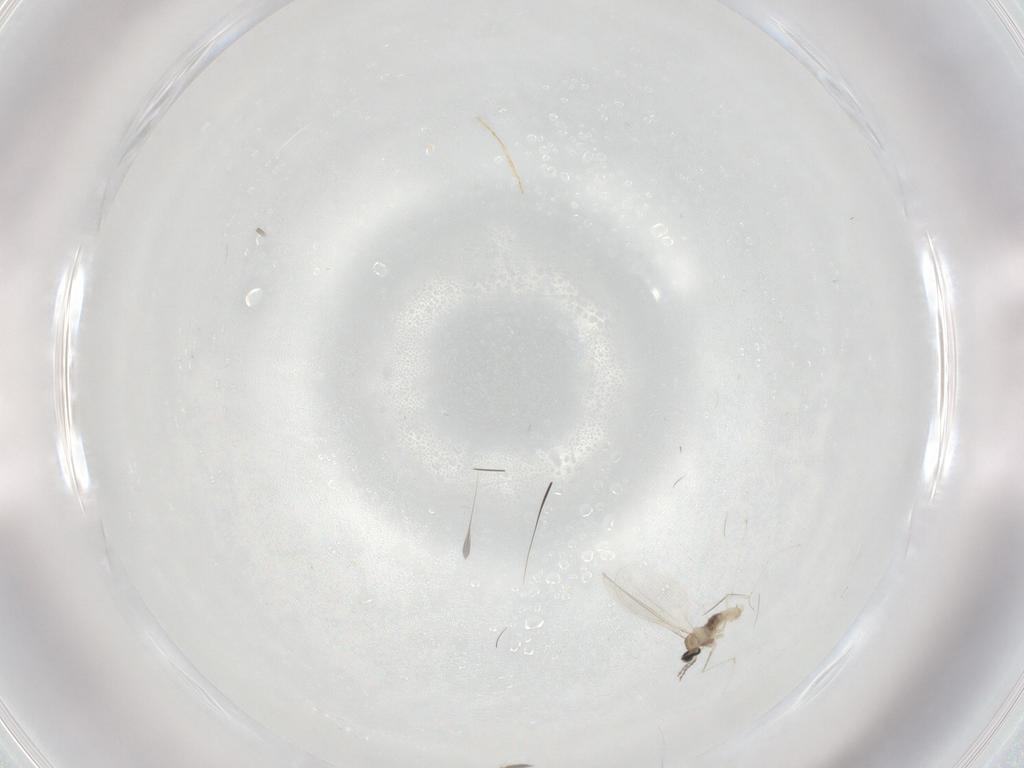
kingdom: Animalia
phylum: Arthropoda
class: Insecta
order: Diptera
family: Cecidomyiidae
